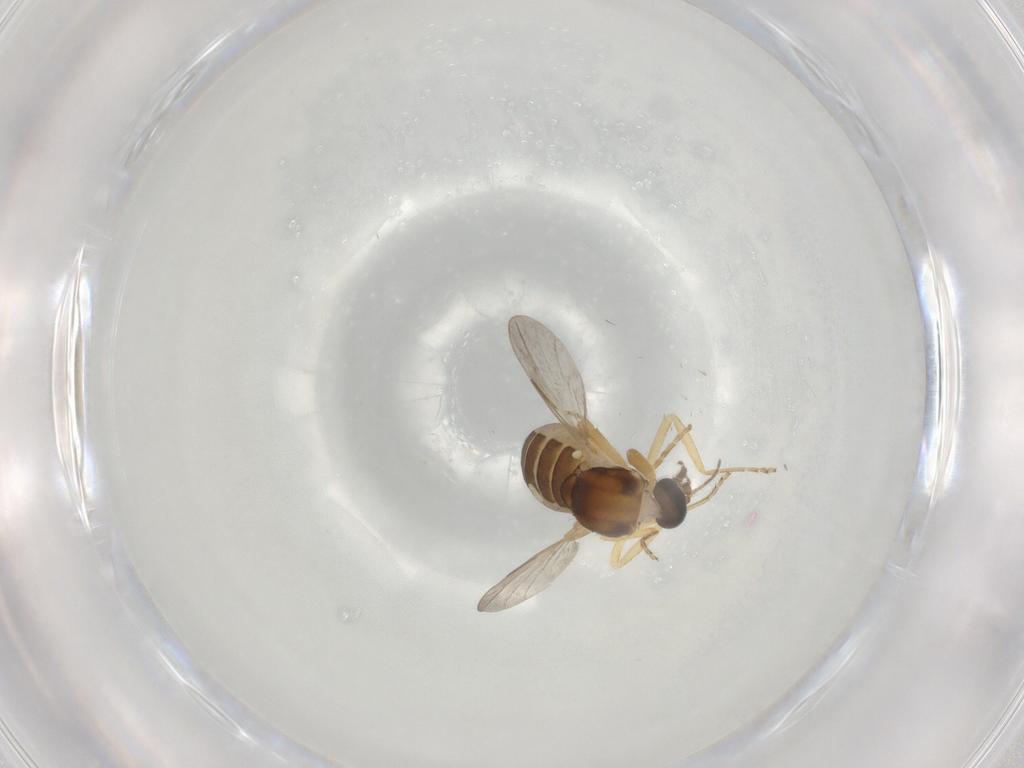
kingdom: Animalia
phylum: Arthropoda
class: Insecta
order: Diptera
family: Ceratopogonidae
